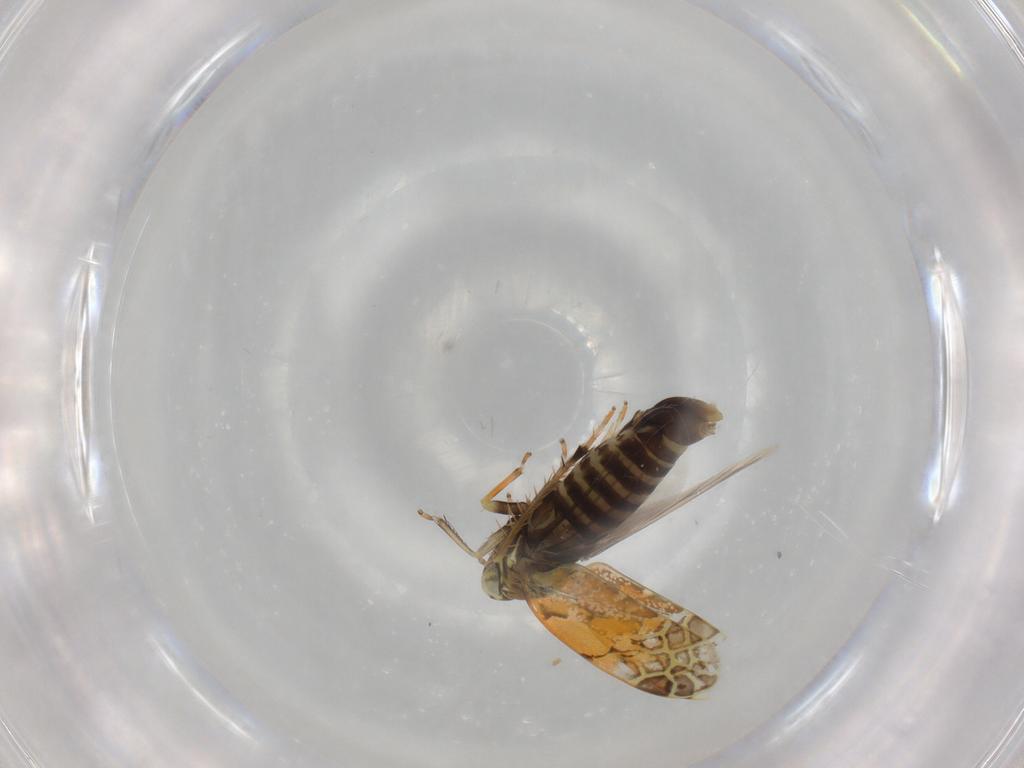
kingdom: Animalia
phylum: Arthropoda
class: Insecta
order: Hemiptera
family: Cicadellidae
